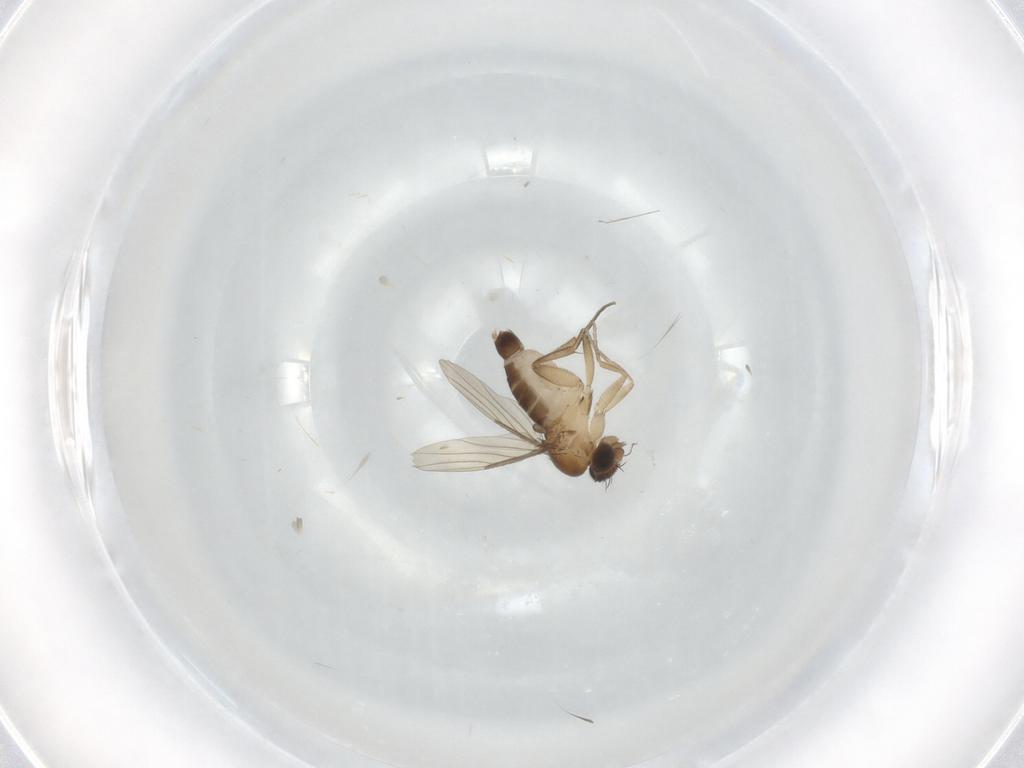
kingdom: Animalia
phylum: Arthropoda
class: Insecta
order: Diptera
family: Phoridae
